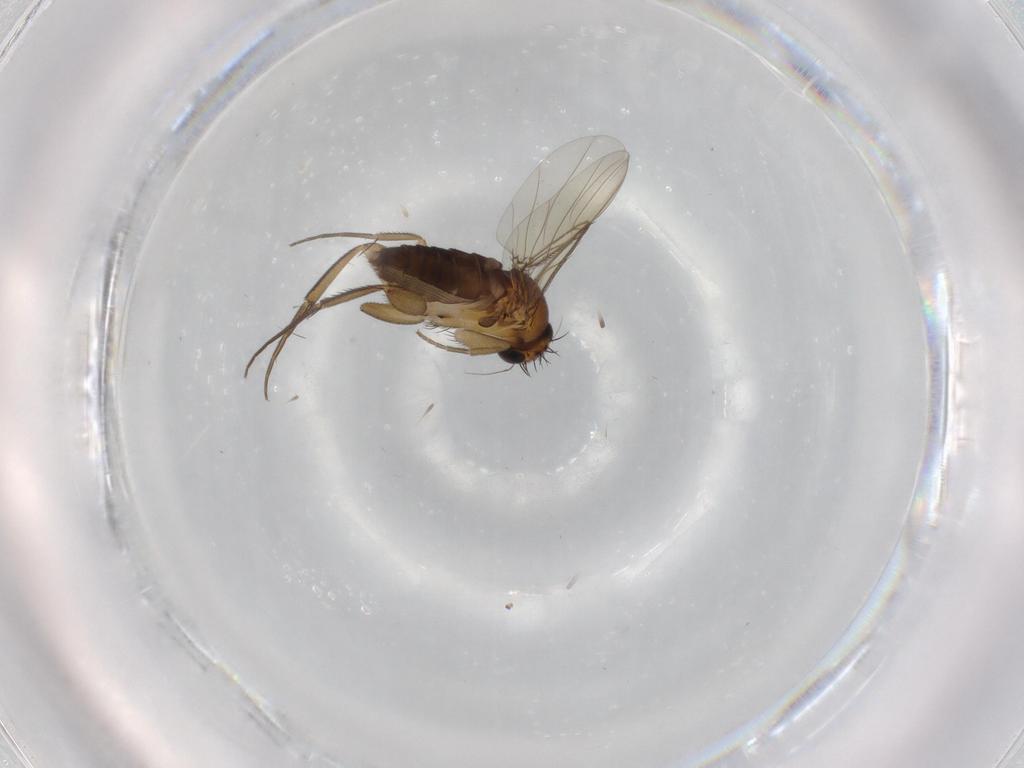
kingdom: Animalia
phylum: Arthropoda
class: Insecta
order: Diptera
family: Phoridae
